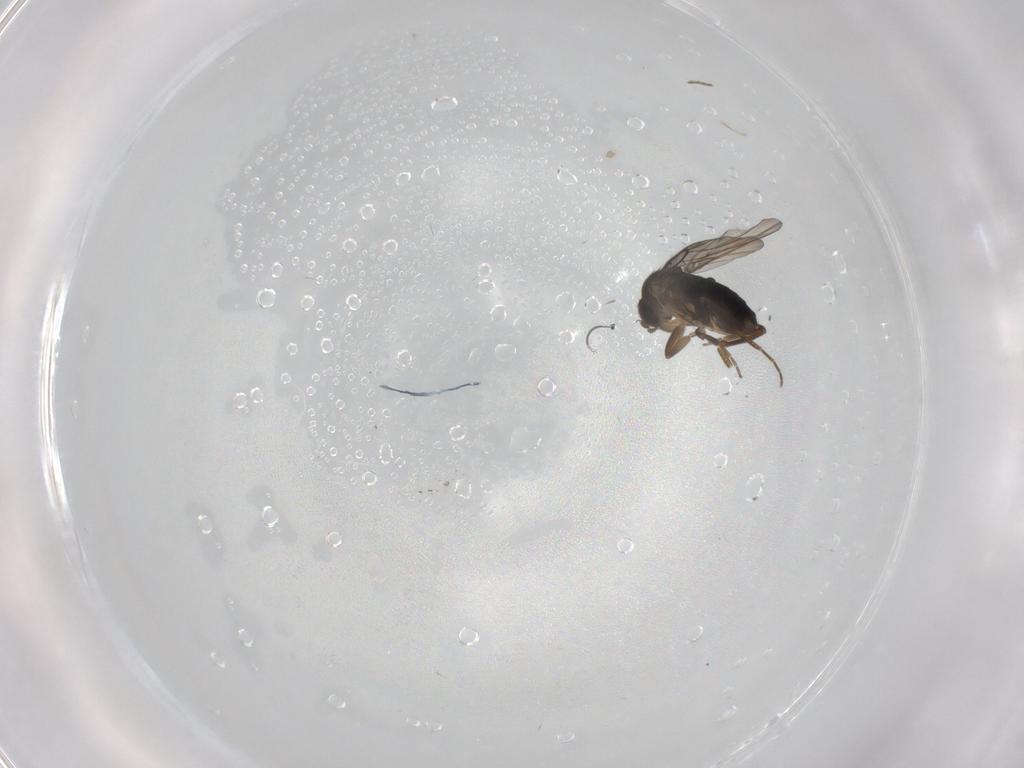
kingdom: Animalia
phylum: Arthropoda
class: Insecta
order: Diptera
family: Phoridae
